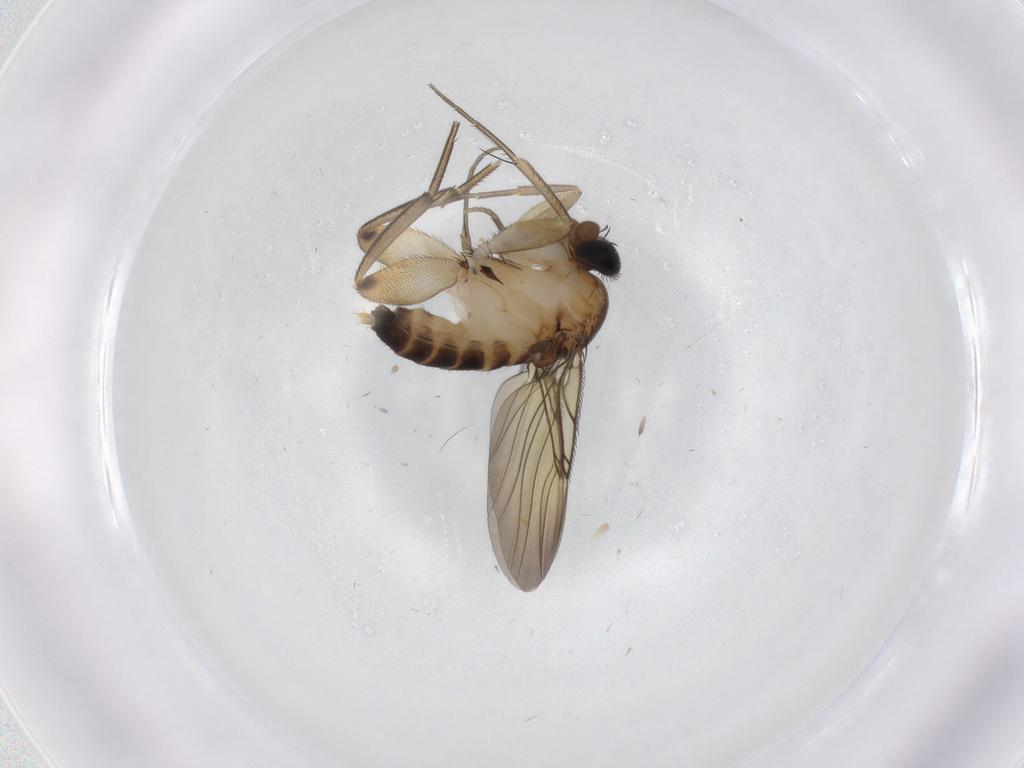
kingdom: Animalia
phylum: Arthropoda
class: Insecta
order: Diptera
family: Phoridae
